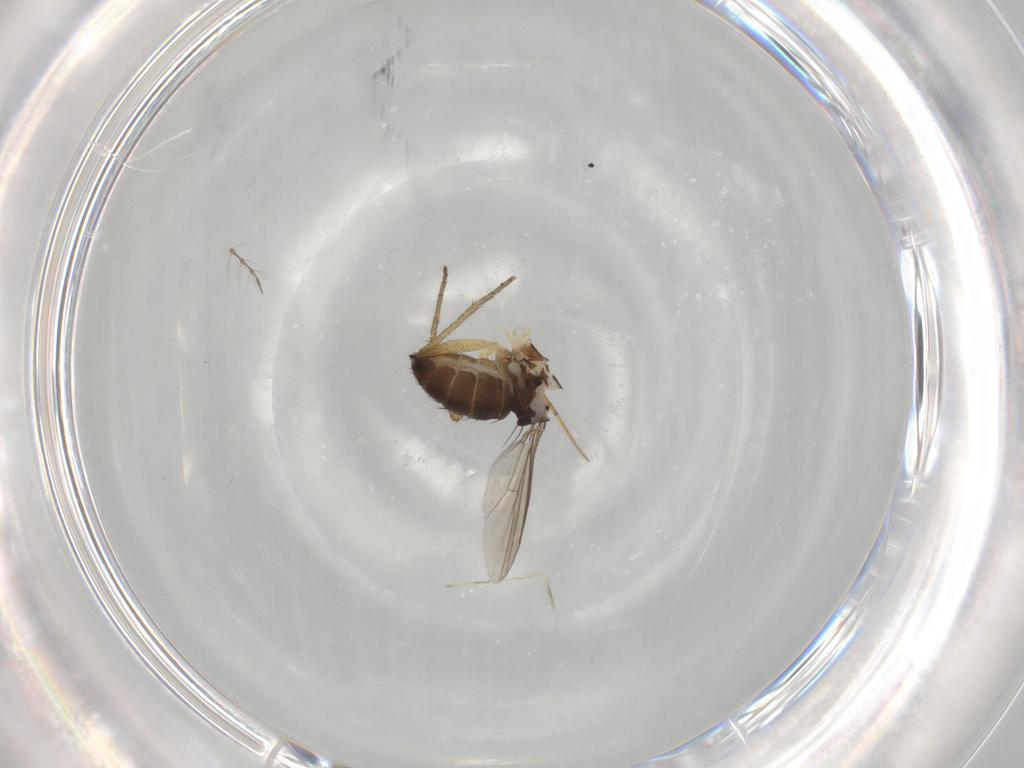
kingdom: Animalia
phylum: Arthropoda
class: Insecta
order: Diptera
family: Dolichopodidae
